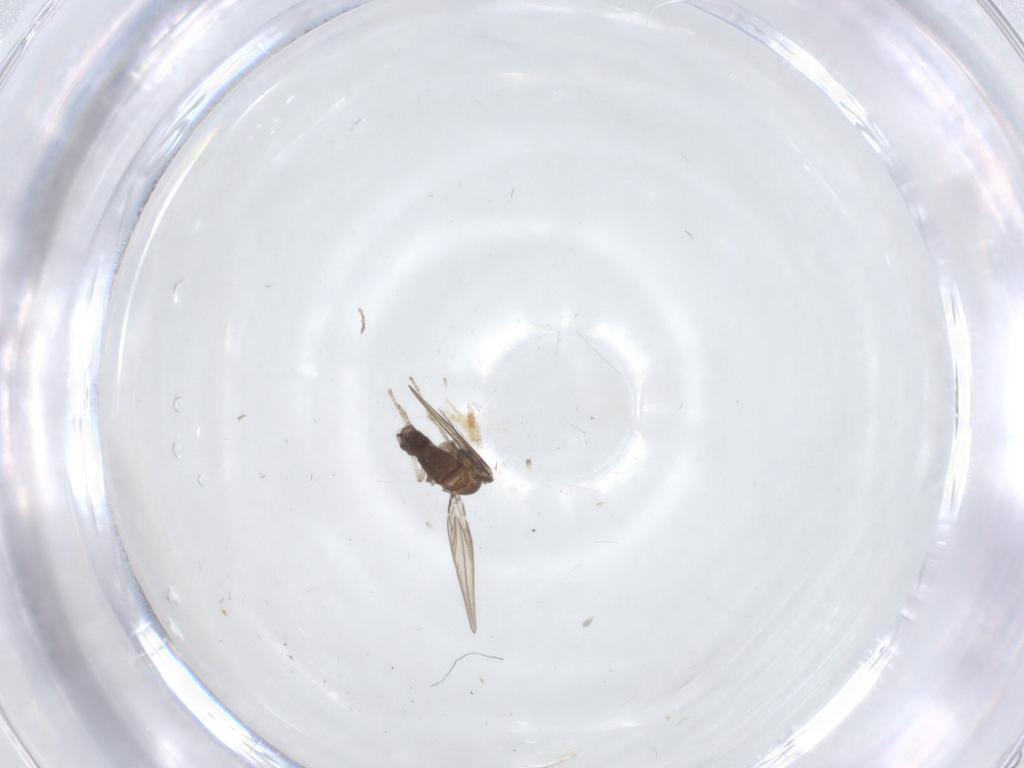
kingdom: Animalia
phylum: Arthropoda
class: Insecta
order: Diptera
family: Psychodidae
